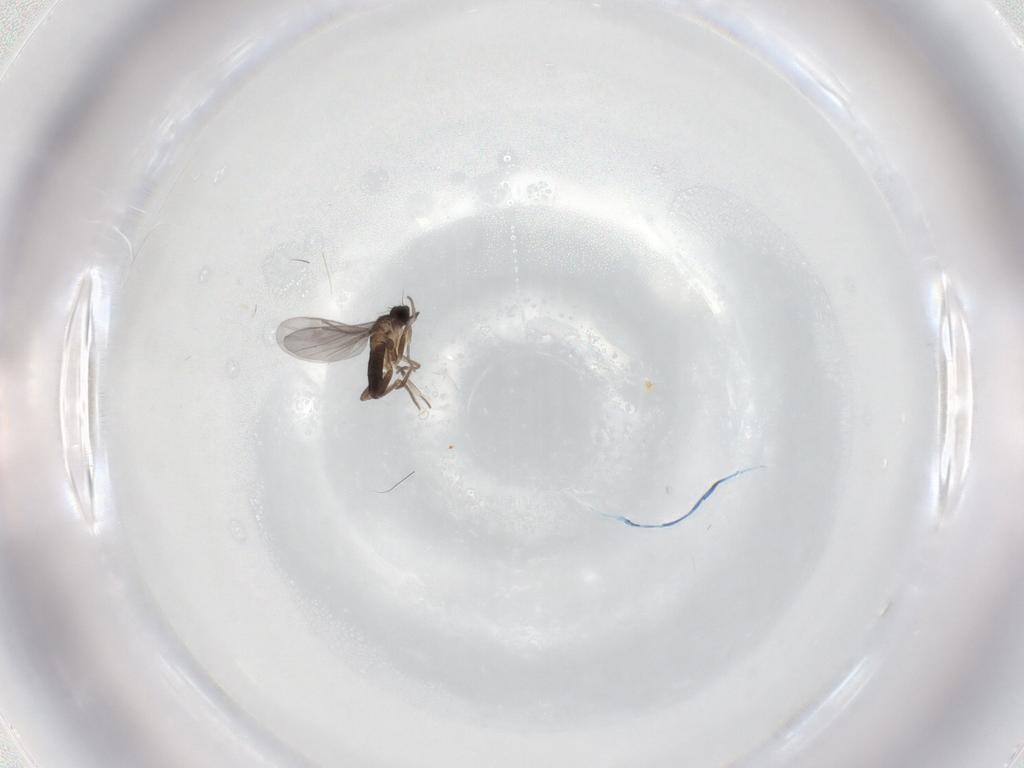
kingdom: Animalia
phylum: Arthropoda
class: Insecta
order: Diptera
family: Phoridae
